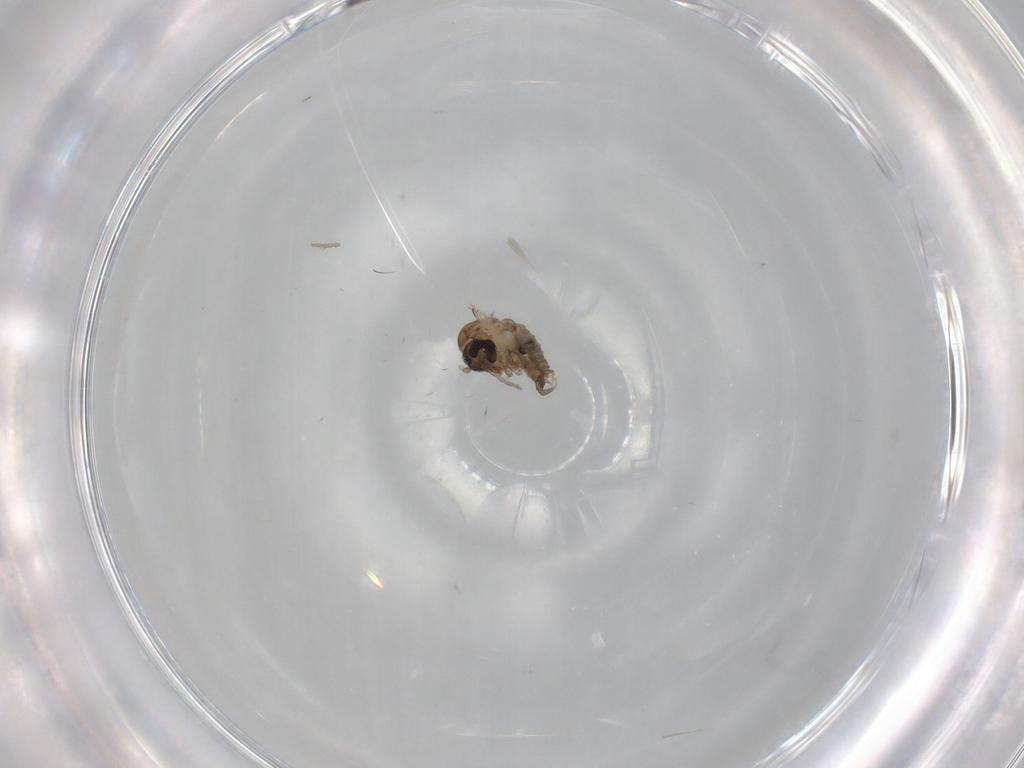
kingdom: Animalia
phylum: Arthropoda
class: Insecta
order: Diptera
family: Psychodidae
